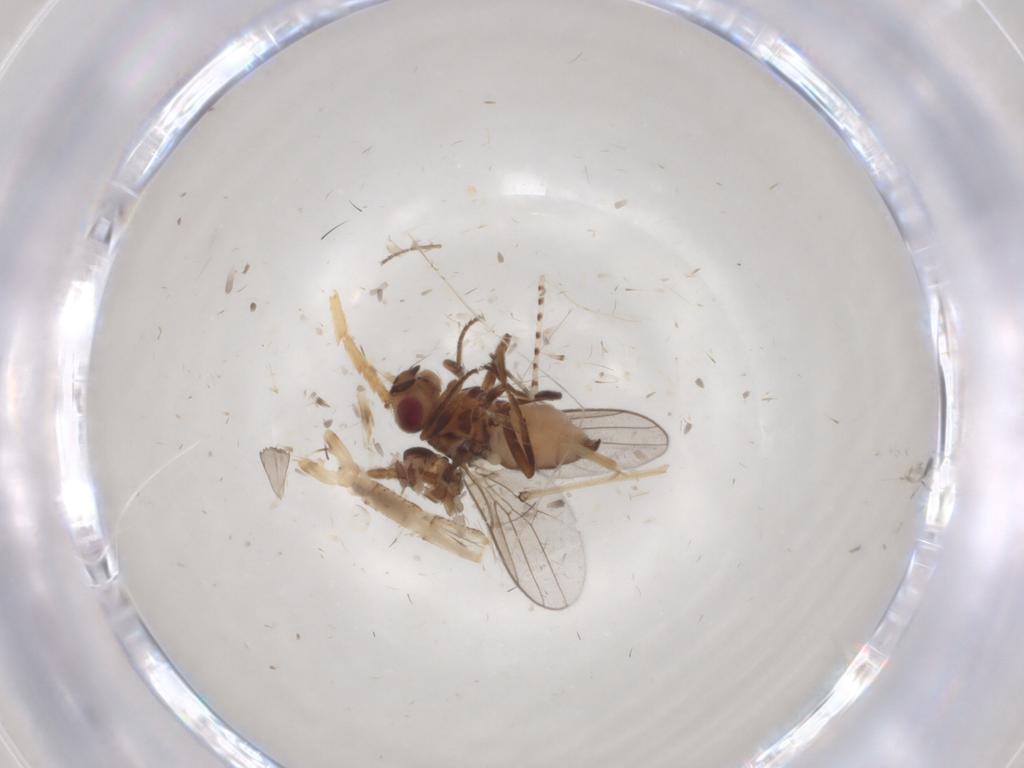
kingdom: Animalia
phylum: Arthropoda
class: Insecta
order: Diptera
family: Chloropidae
